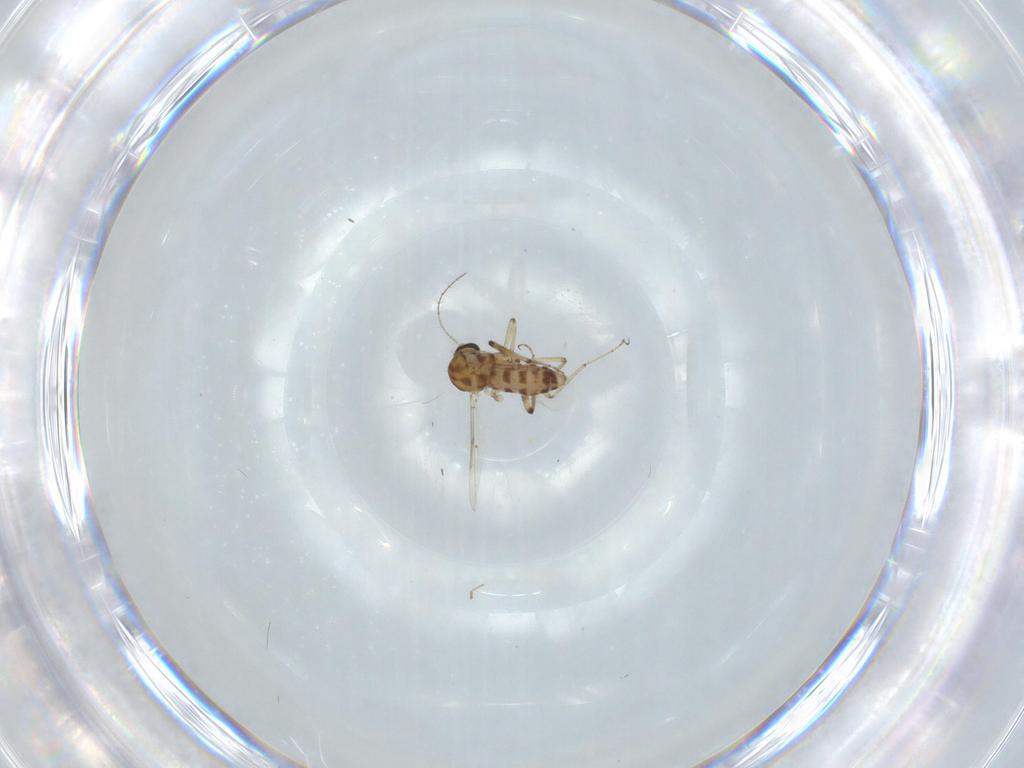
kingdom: Animalia
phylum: Arthropoda
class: Insecta
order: Diptera
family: Ceratopogonidae
